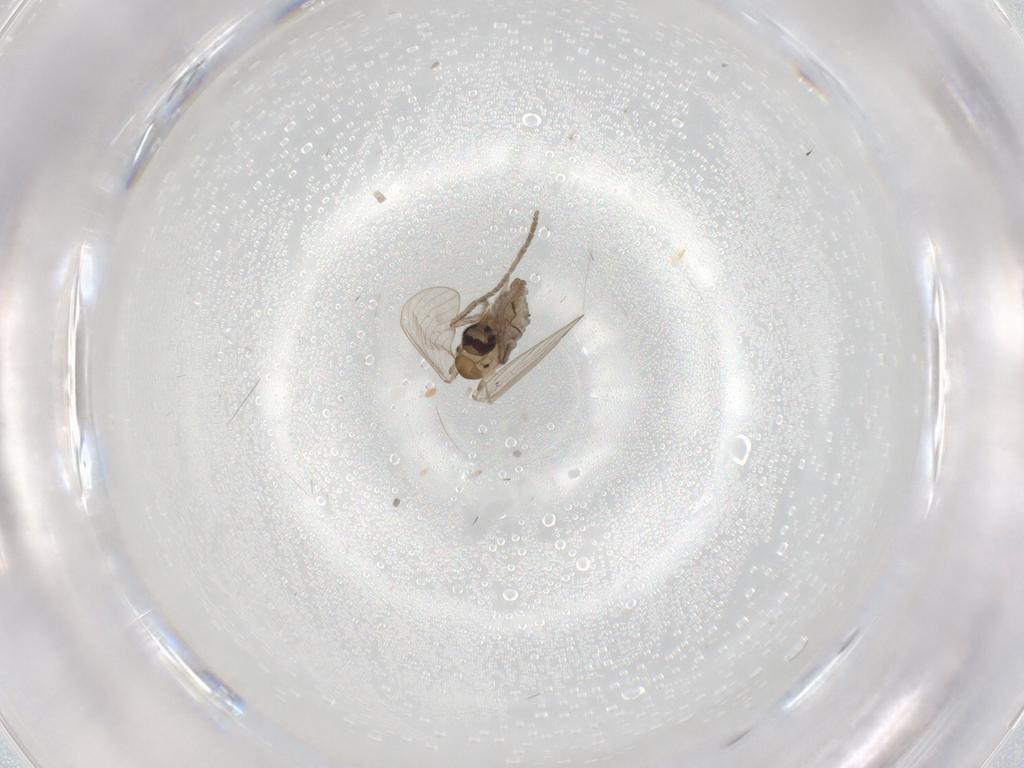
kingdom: Animalia
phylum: Arthropoda
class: Insecta
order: Diptera
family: Psychodidae
